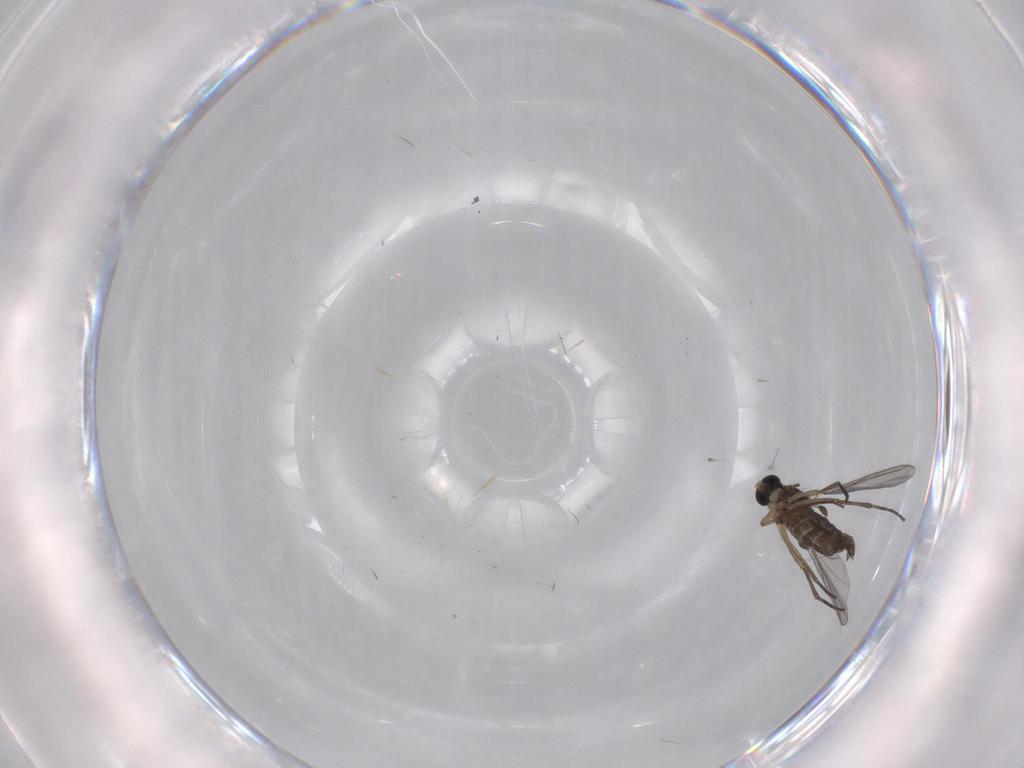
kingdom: Animalia
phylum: Arthropoda
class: Insecta
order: Diptera
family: Sciaridae
